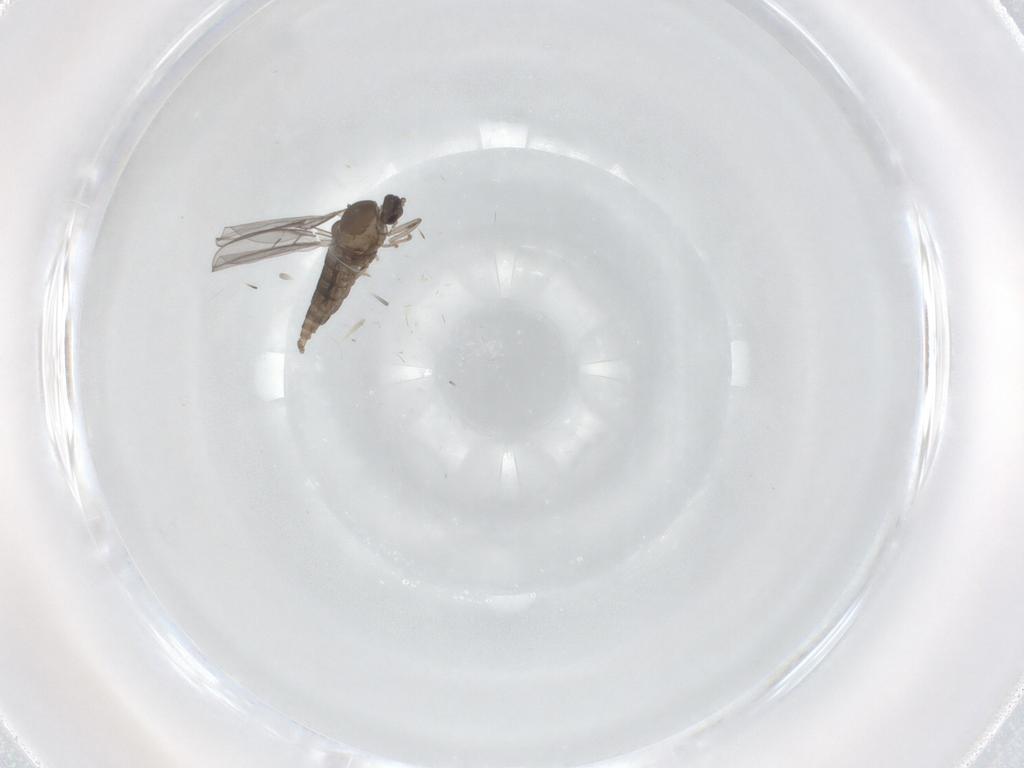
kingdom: Animalia
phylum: Arthropoda
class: Insecta
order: Diptera
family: Cecidomyiidae
